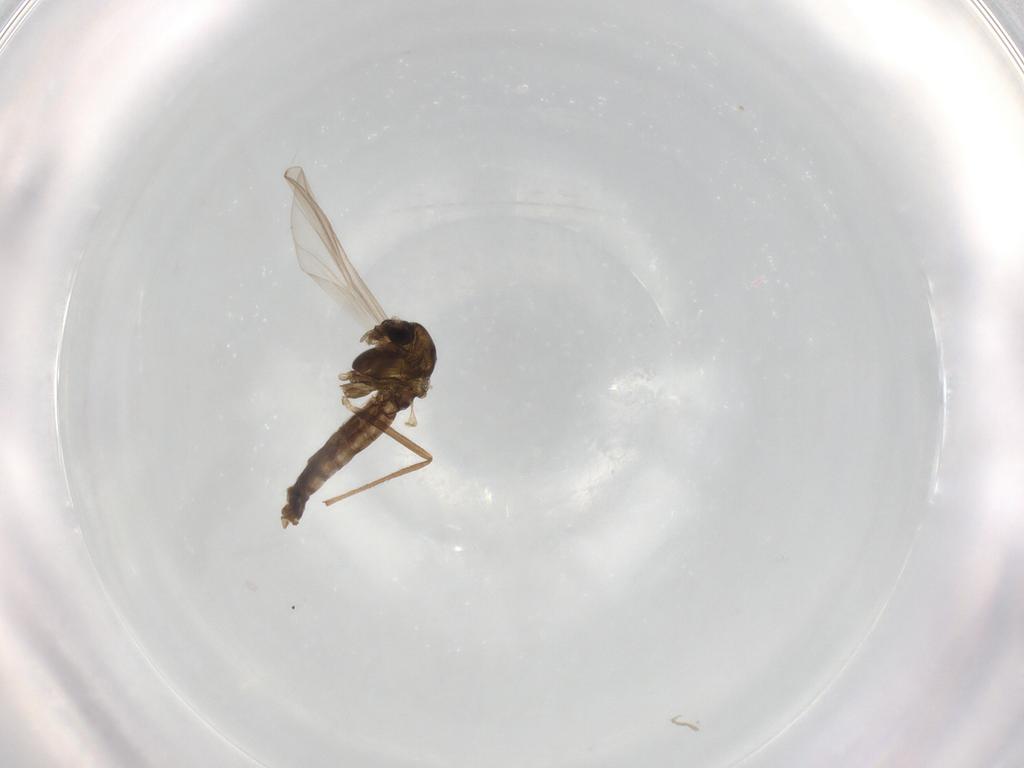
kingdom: Animalia
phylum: Arthropoda
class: Insecta
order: Diptera
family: Chironomidae
